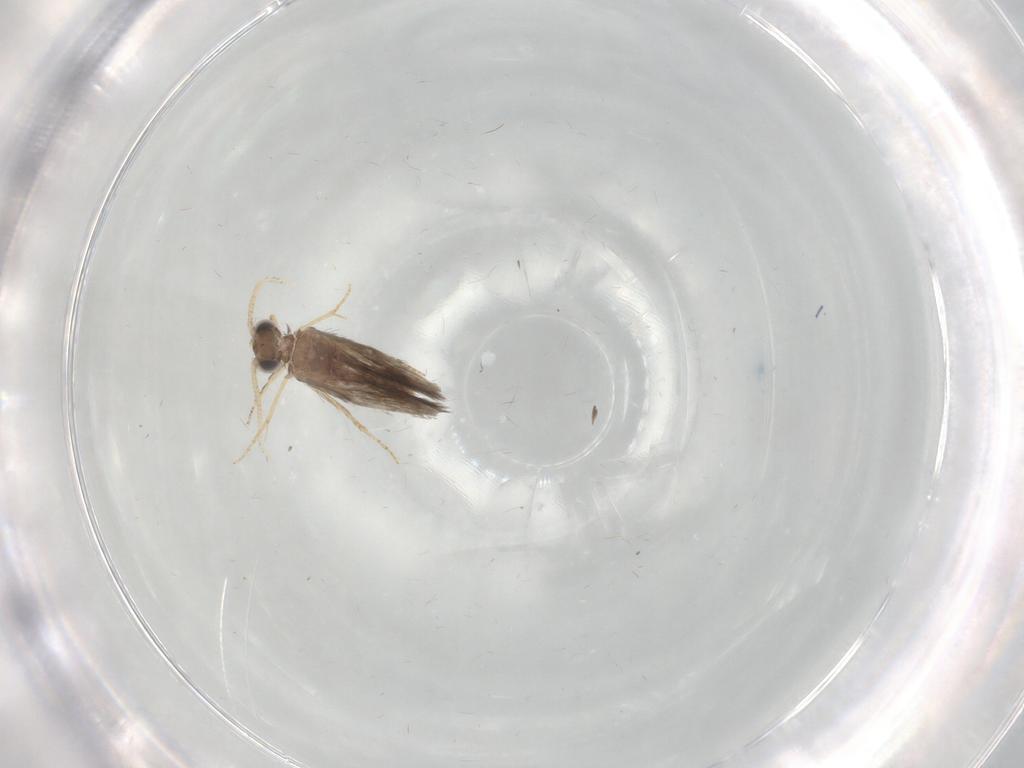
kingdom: Animalia
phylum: Arthropoda
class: Insecta
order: Trichoptera
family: Hydroptilidae
